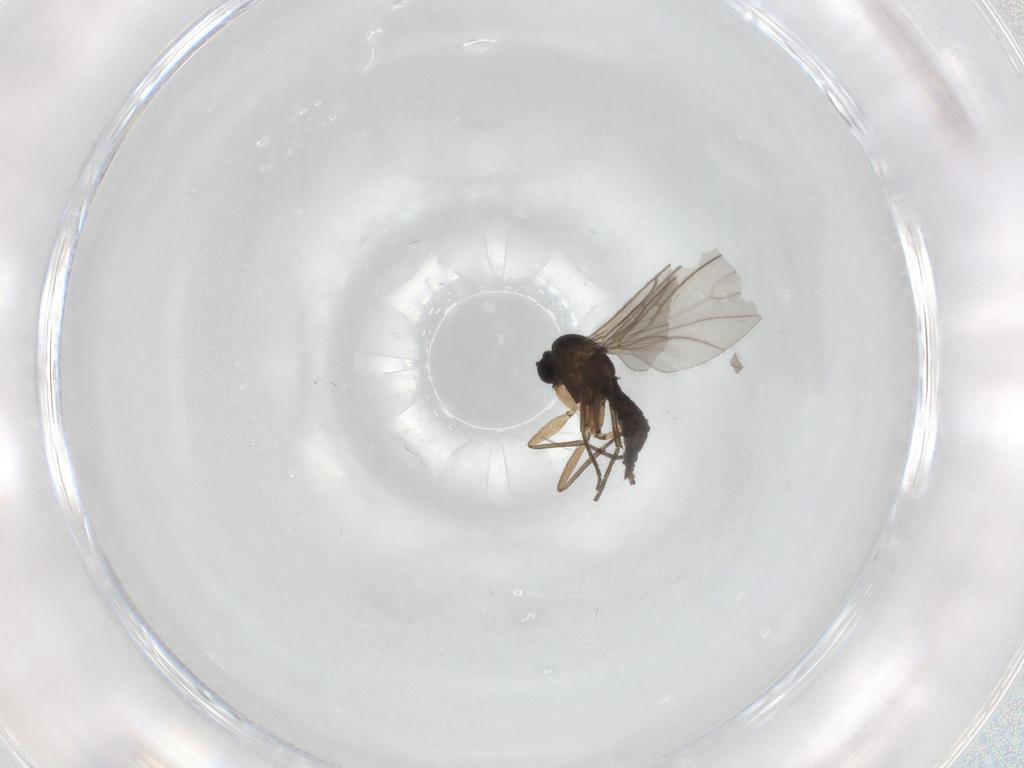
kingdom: Animalia
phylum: Arthropoda
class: Insecta
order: Diptera
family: Sciaridae
